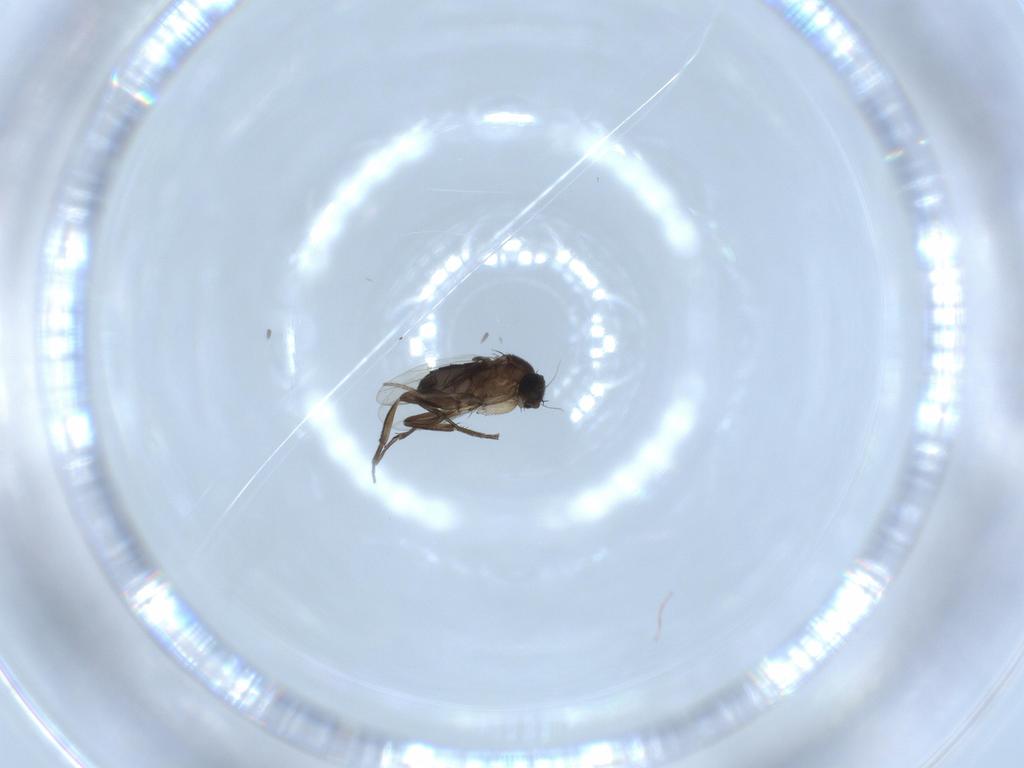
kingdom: Animalia
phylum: Arthropoda
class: Insecta
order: Diptera
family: Phoridae
